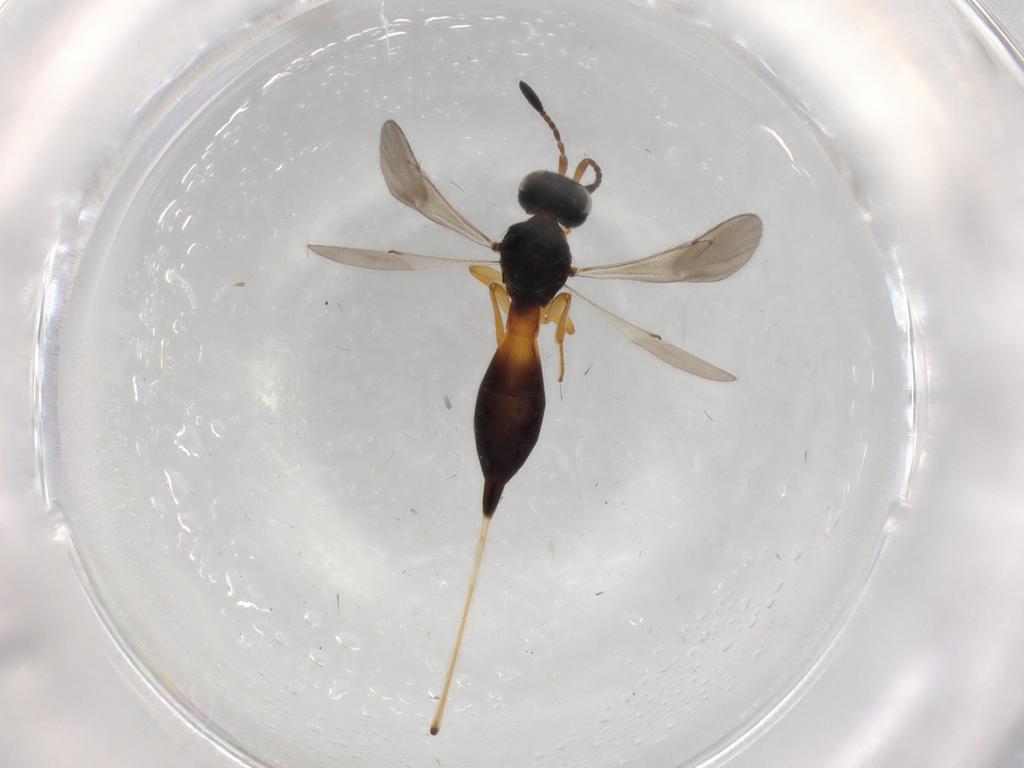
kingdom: Animalia
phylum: Arthropoda
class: Insecta
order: Hymenoptera
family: Scelionidae
